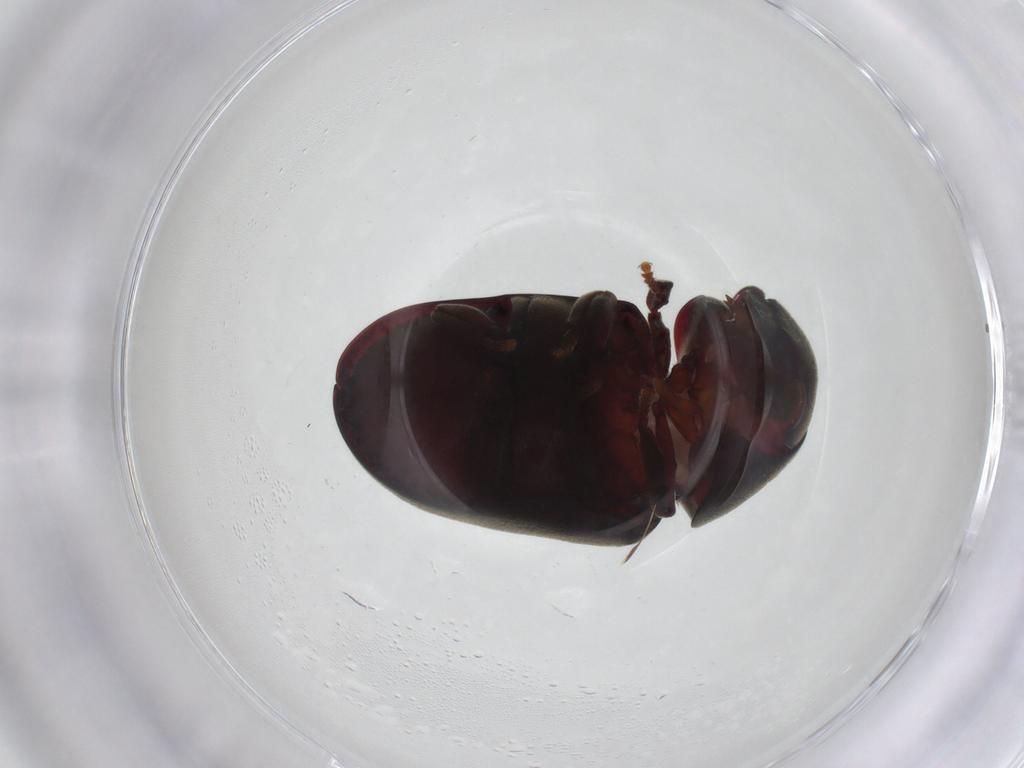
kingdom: Animalia
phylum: Arthropoda
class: Insecta
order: Coleoptera
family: Ptinidae
